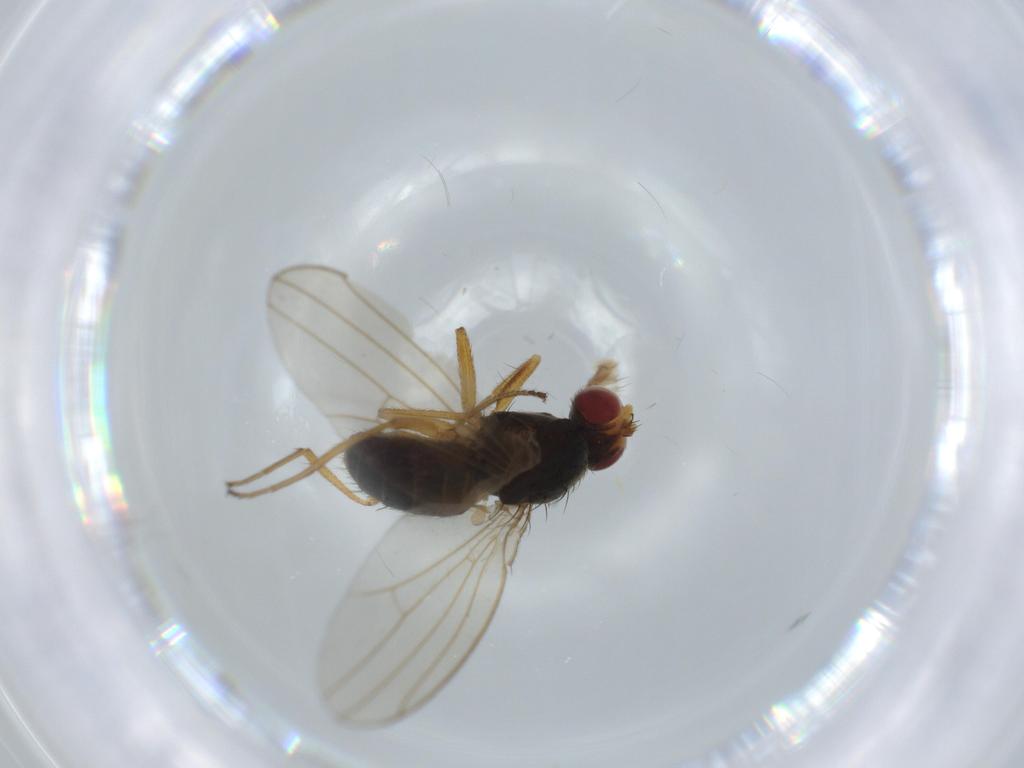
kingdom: Animalia
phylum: Arthropoda
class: Insecta
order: Diptera
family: Drosophilidae
